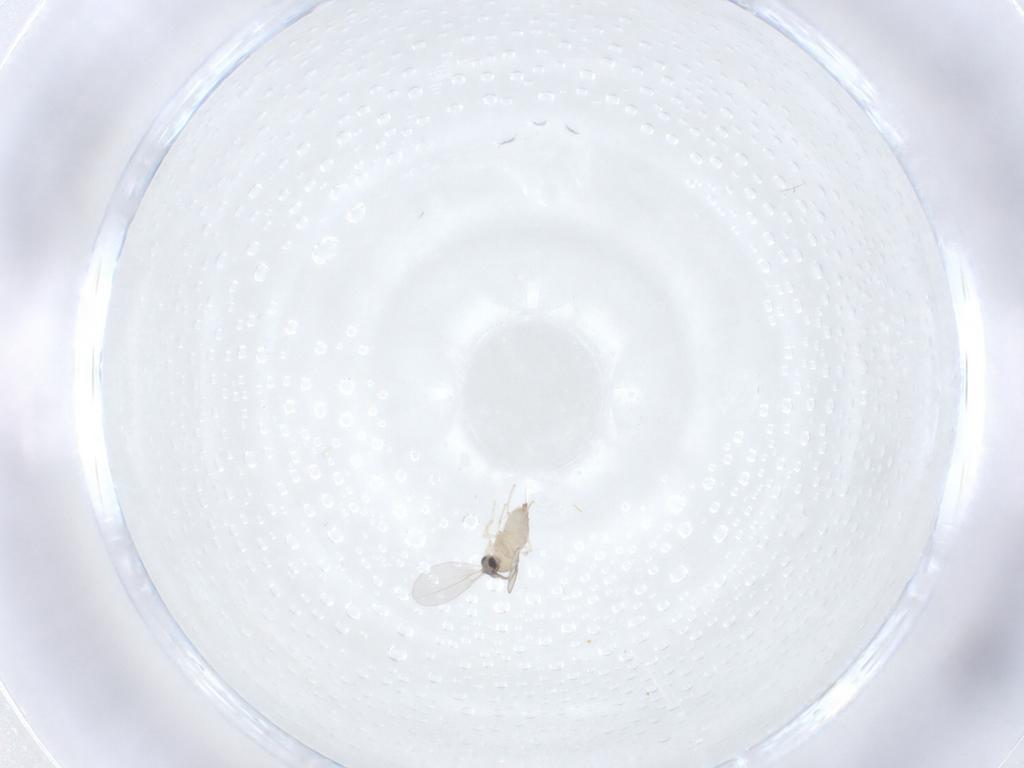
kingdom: Animalia
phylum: Arthropoda
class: Insecta
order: Diptera
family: Cecidomyiidae
